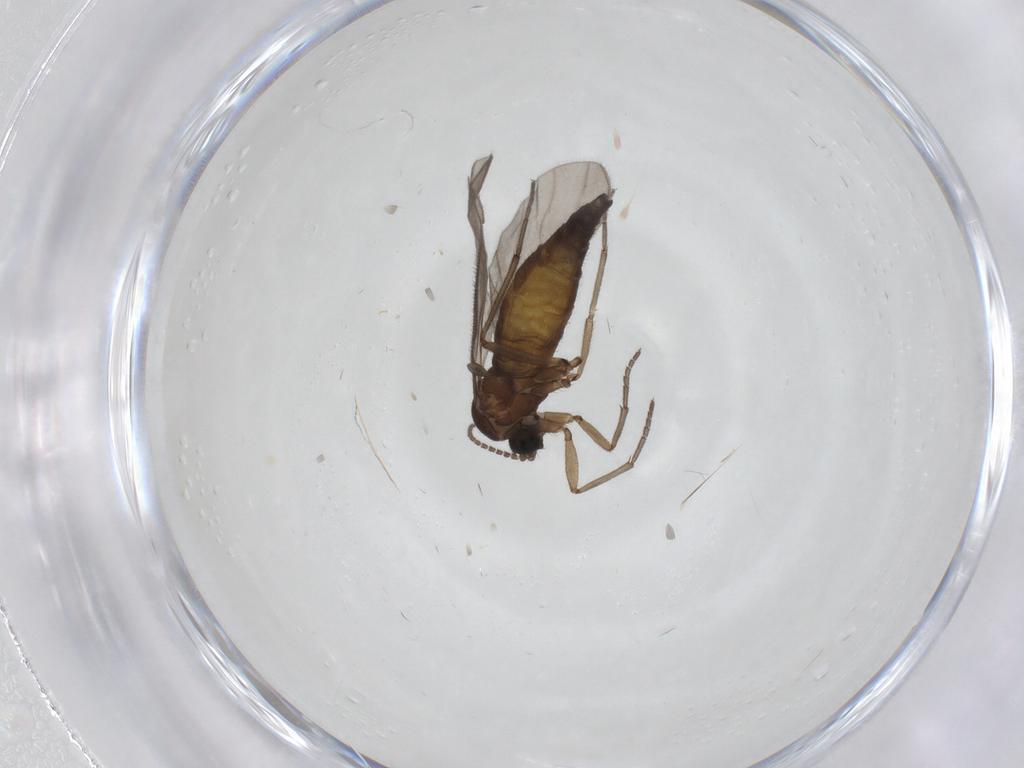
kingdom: Animalia
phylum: Arthropoda
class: Insecta
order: Diptera
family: Sciaridae
